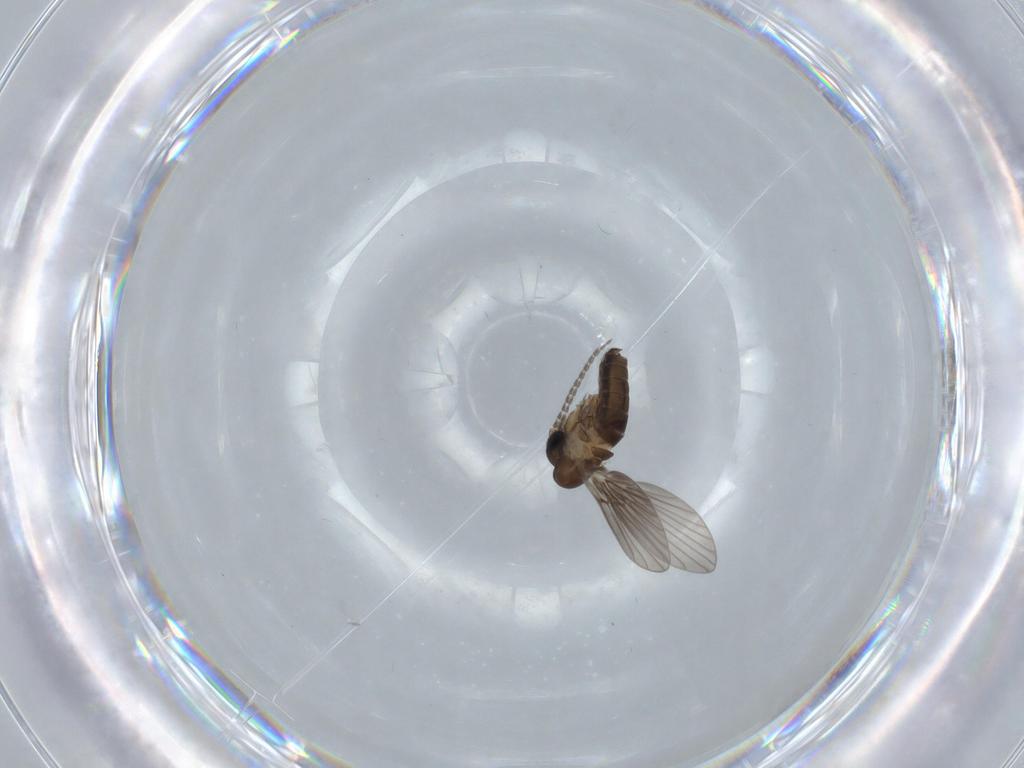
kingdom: Animalia
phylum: Arthropoda
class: Insecta
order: Diptera
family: Psychodidae
